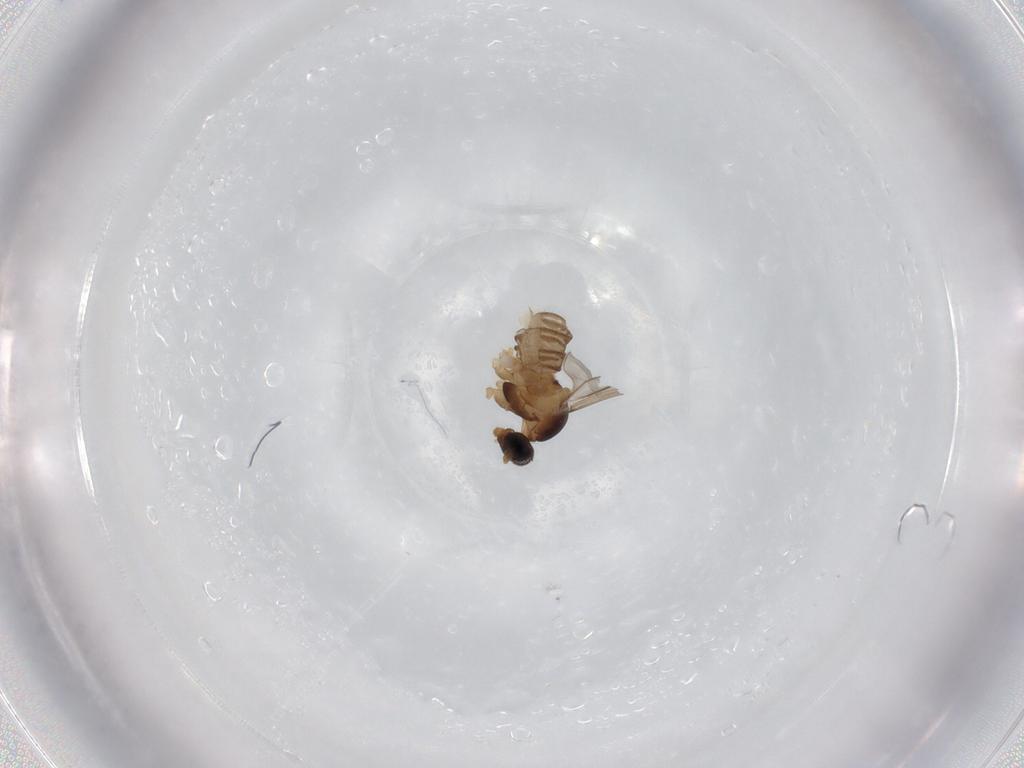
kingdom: Animalia
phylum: Arthropoda
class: Insecta
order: Diptera
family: Cecidomyiidae
